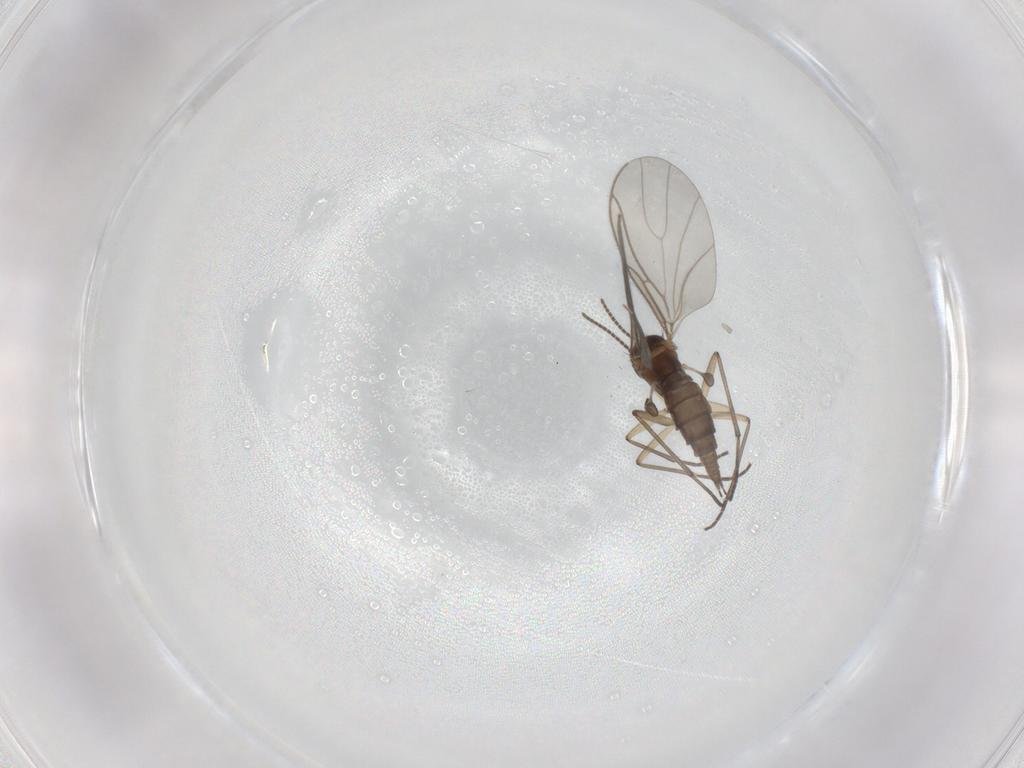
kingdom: Animalia
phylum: Arthropoda
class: Insecta
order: Diptera
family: Sciaridae
